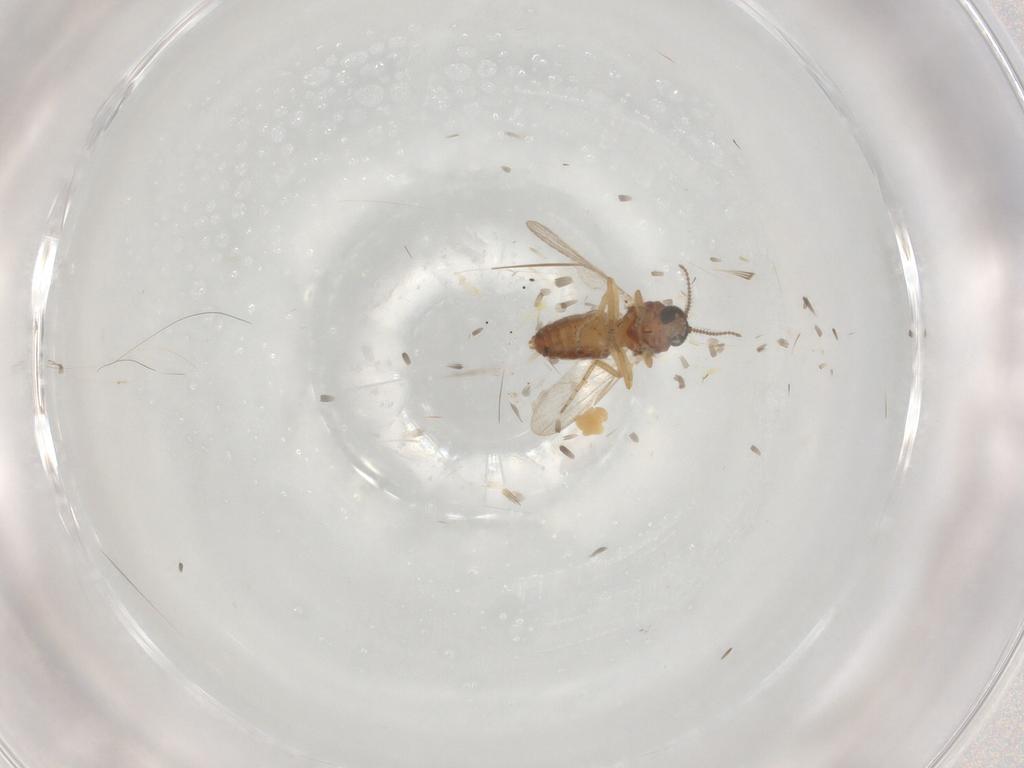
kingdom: Animalia
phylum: Arthropoda
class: Insecta
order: Diptera
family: Ceratopogonidae
